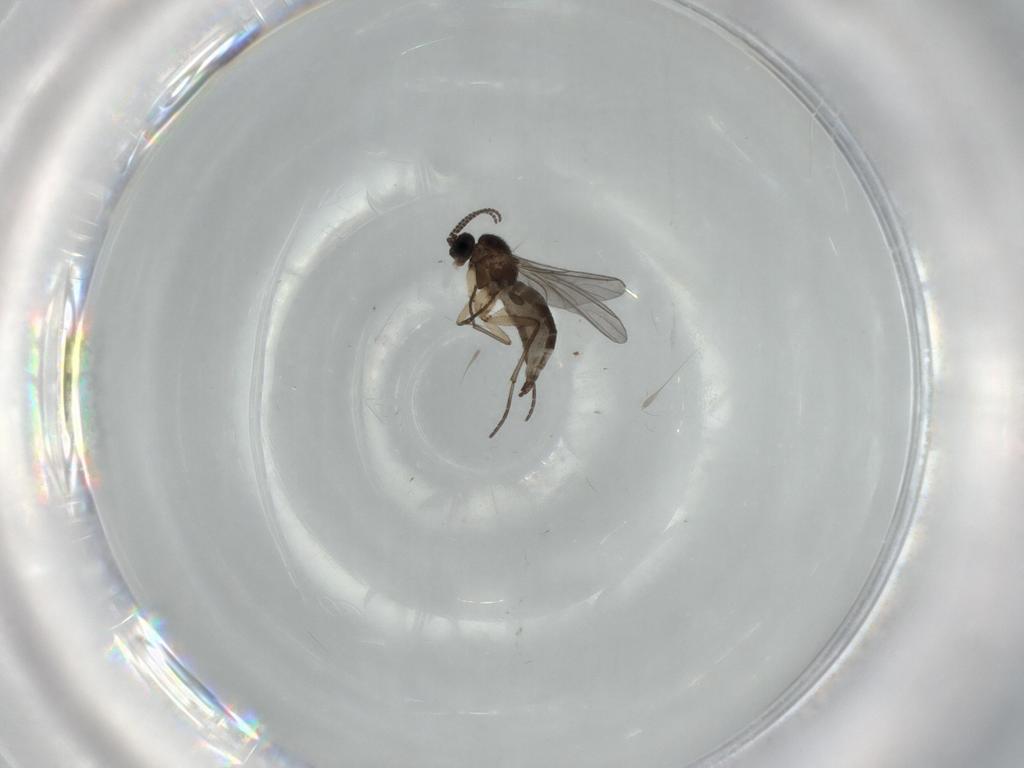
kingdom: Animalia
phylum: Arthropoda
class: Insecta
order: Diptera
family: Sciaridae
